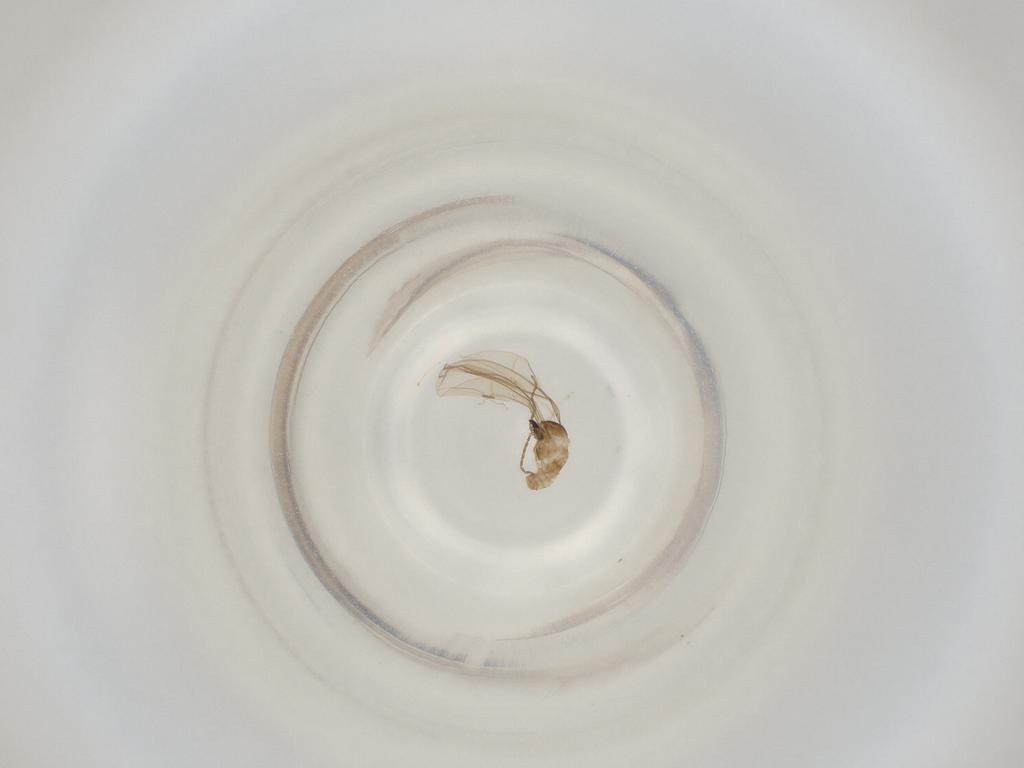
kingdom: Animalia
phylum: Arthropoda
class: Insecta
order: Diptera
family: Cecidomyiidae
